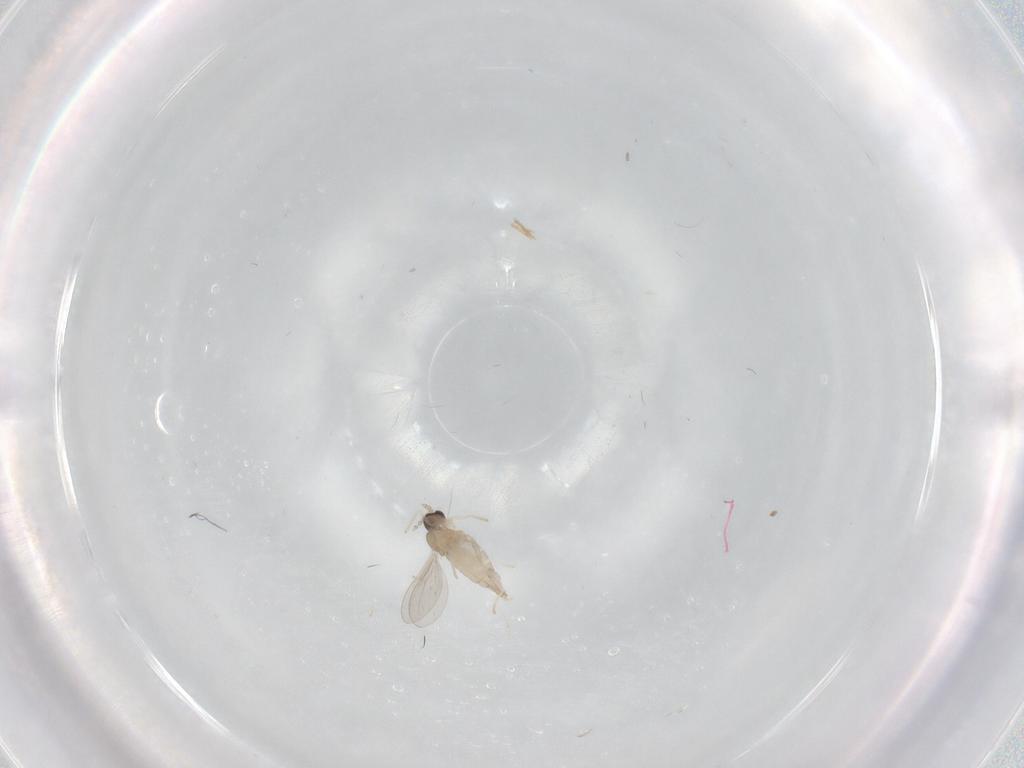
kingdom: Animalia
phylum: Arthropoda
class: Insecta
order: Diptera
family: Cecidomyiidae
